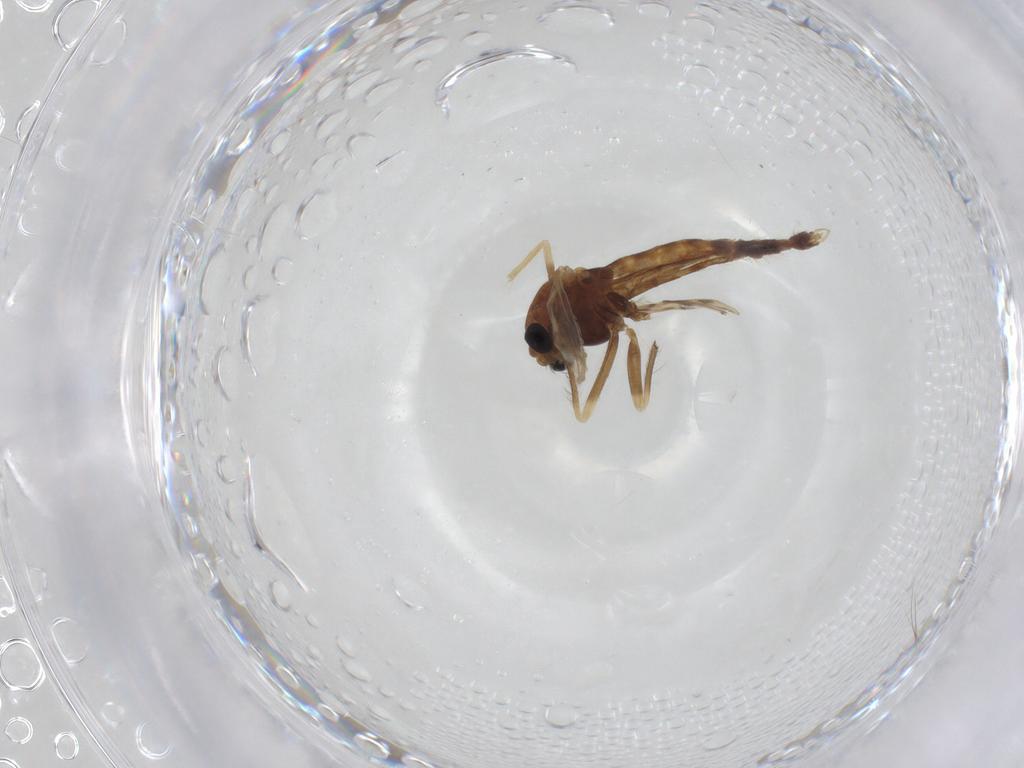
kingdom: Animalia
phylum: Arthropoda
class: Insecta
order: Diptera
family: Chironomidae
